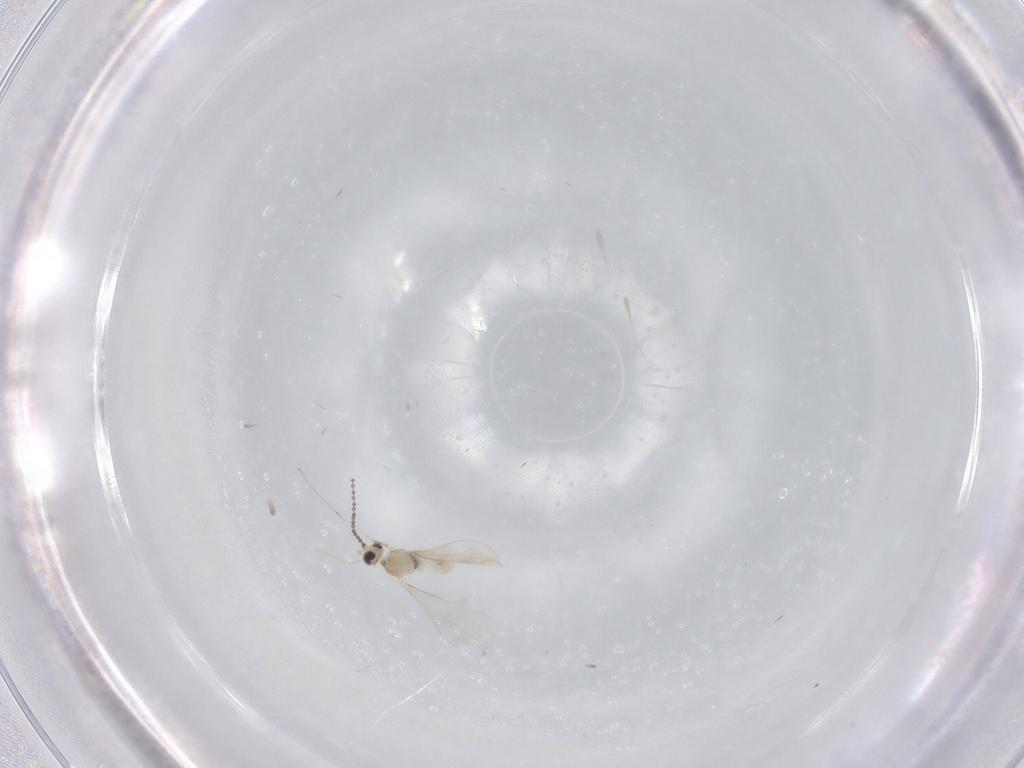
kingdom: Animalia
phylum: Arthropoda
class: Insecta
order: Diptera
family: Cecidomyiidae
